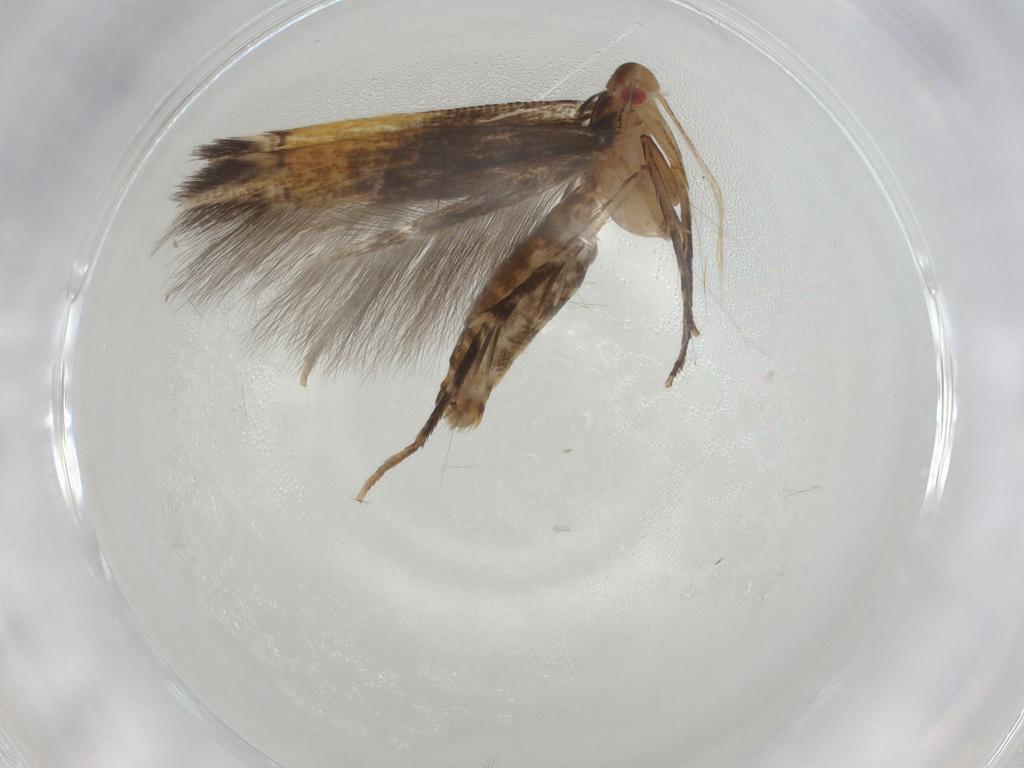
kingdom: Animalia
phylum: Arthropoda
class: Insecta
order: Lepidoptera
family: Cosmopterigidae
